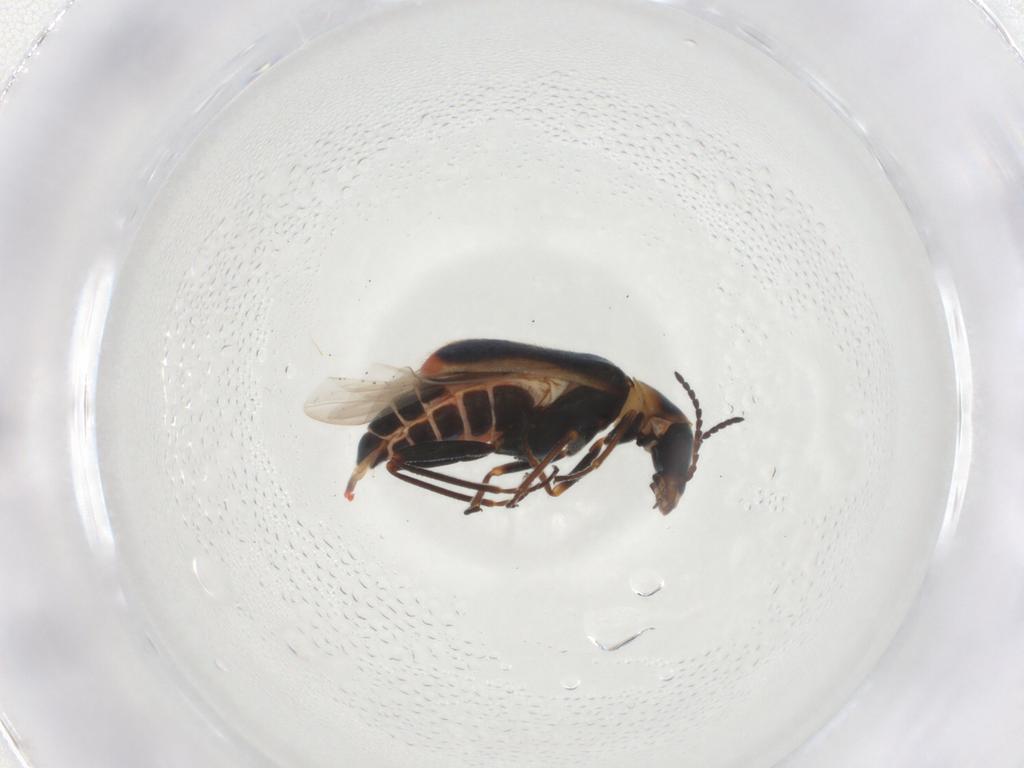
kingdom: Animalia
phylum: Arthropoda
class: Insecta
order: Coleoptera
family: Melyridae
